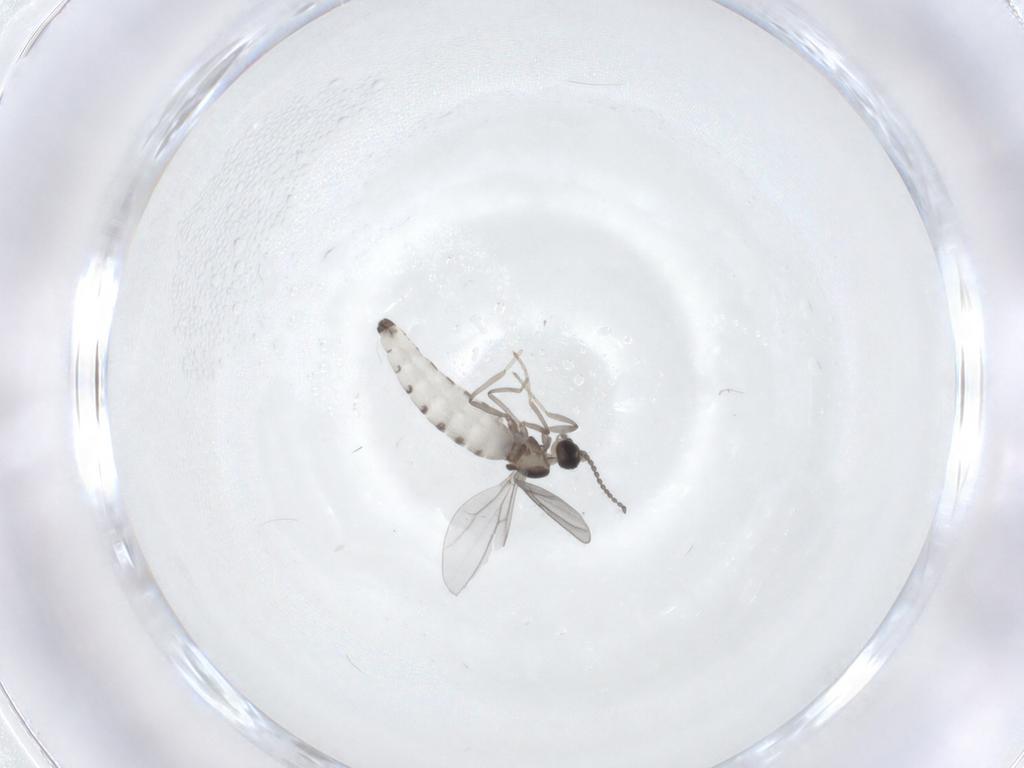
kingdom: Animalia
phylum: Arthropoda
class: Insecta
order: Diptera
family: Cecidomyiidae
